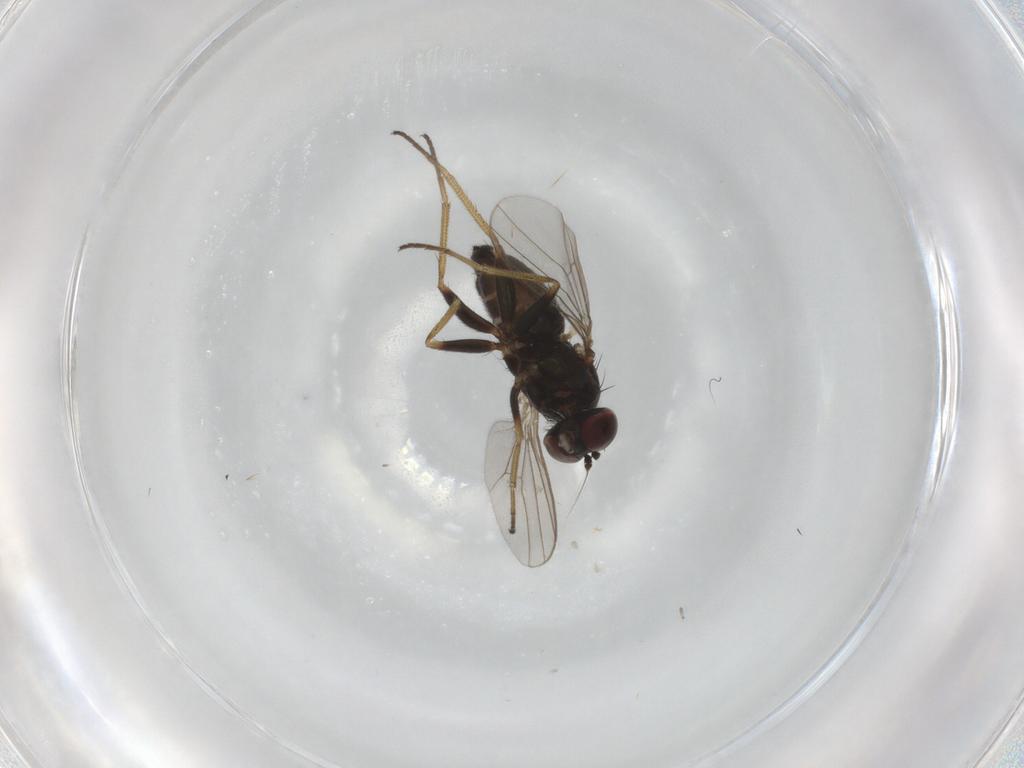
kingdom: Animalia
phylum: Arthropoda
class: Insecta
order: Diptera
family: Dolichopodidae
